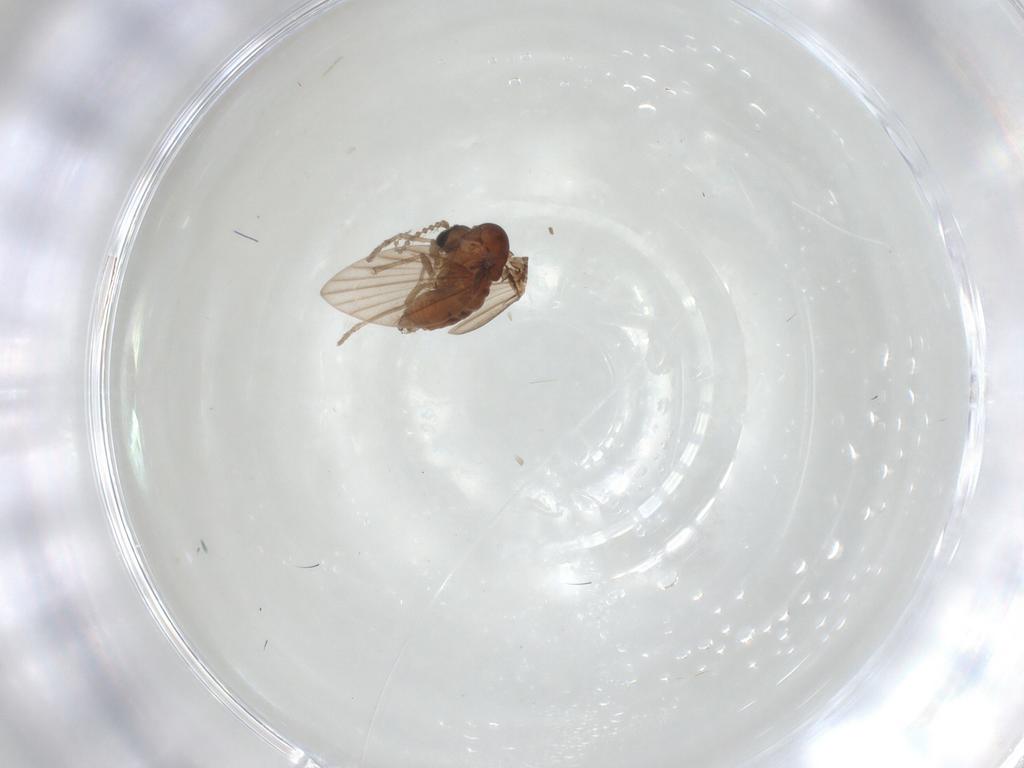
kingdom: Animalia
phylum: Arthropoda
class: Insecta
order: Diptera
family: Psychodidae
